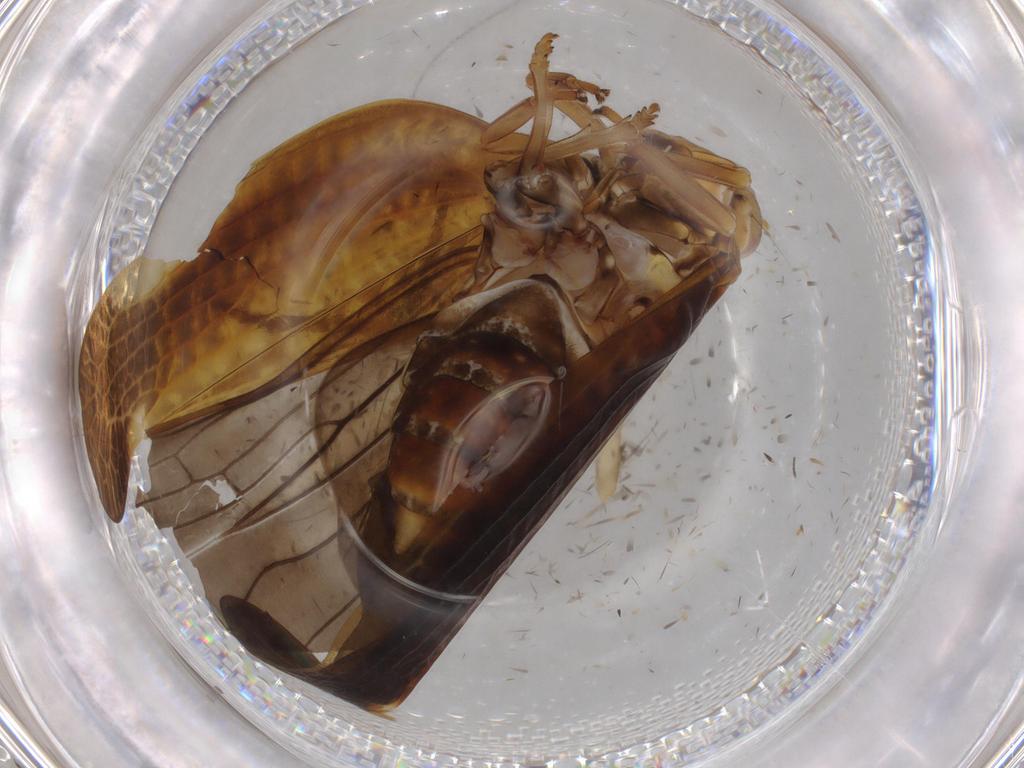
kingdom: Animalia
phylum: Arthropoda
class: Insecta
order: Hemiptera
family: Nogodinidae
